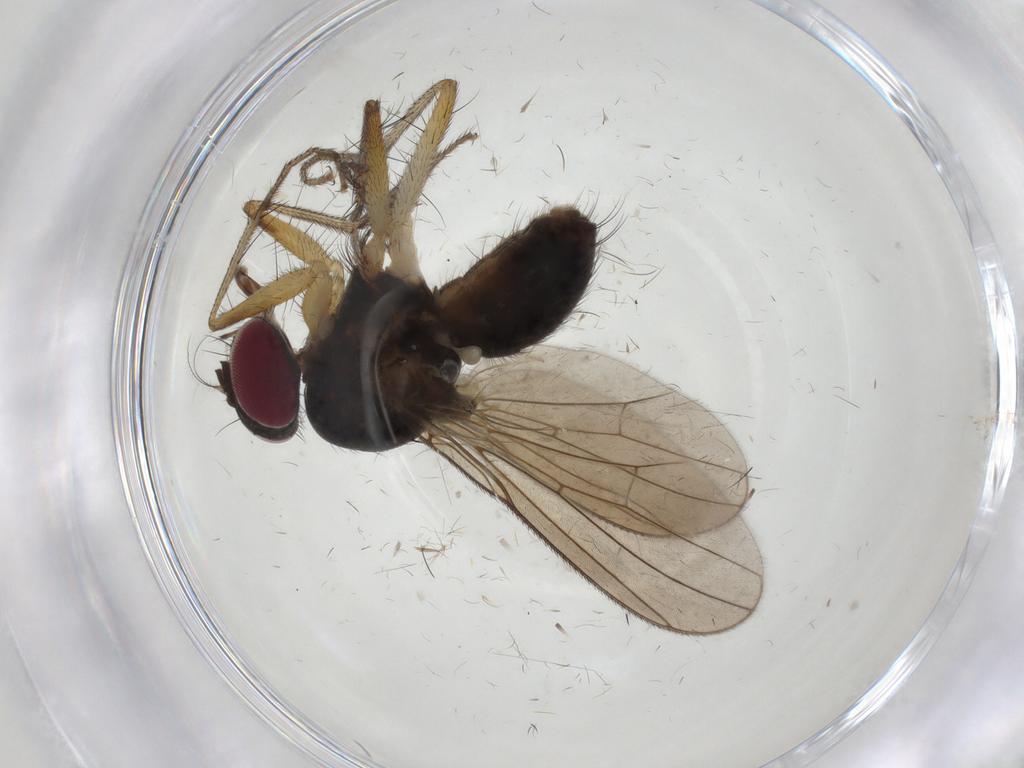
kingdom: Animalia
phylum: Arthropoda
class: Insecta
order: Diptera
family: Anthomyiidae
